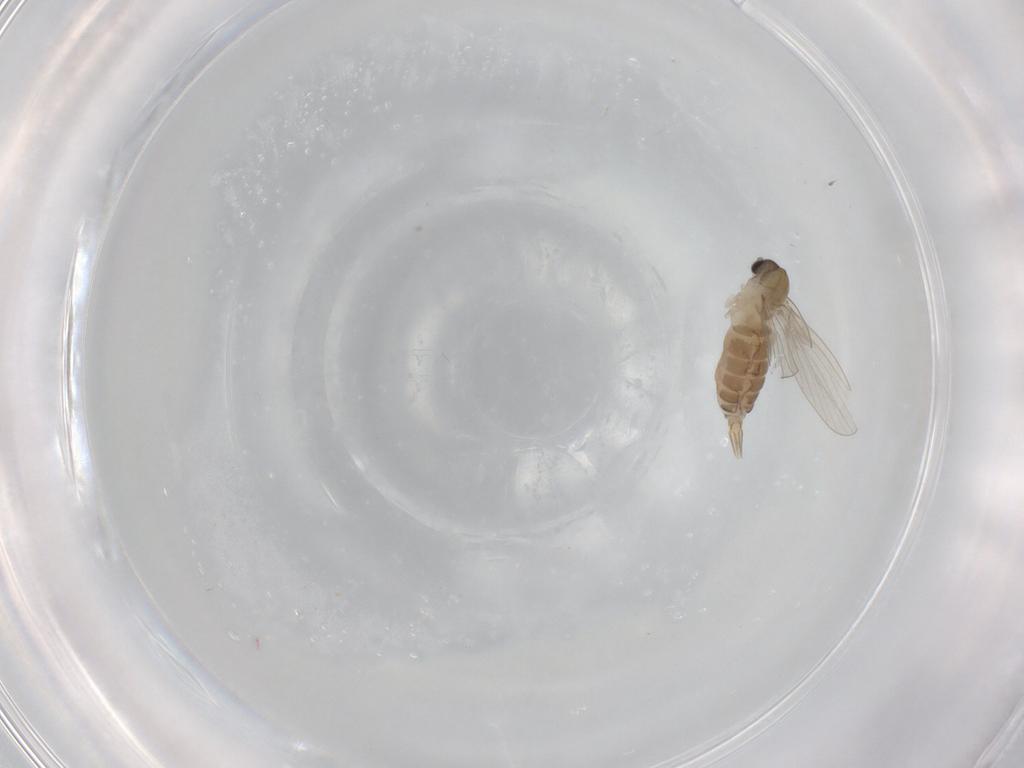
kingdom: Animalia
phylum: Arthropoda
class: Insecta
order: Diptera
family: Psychodidae
